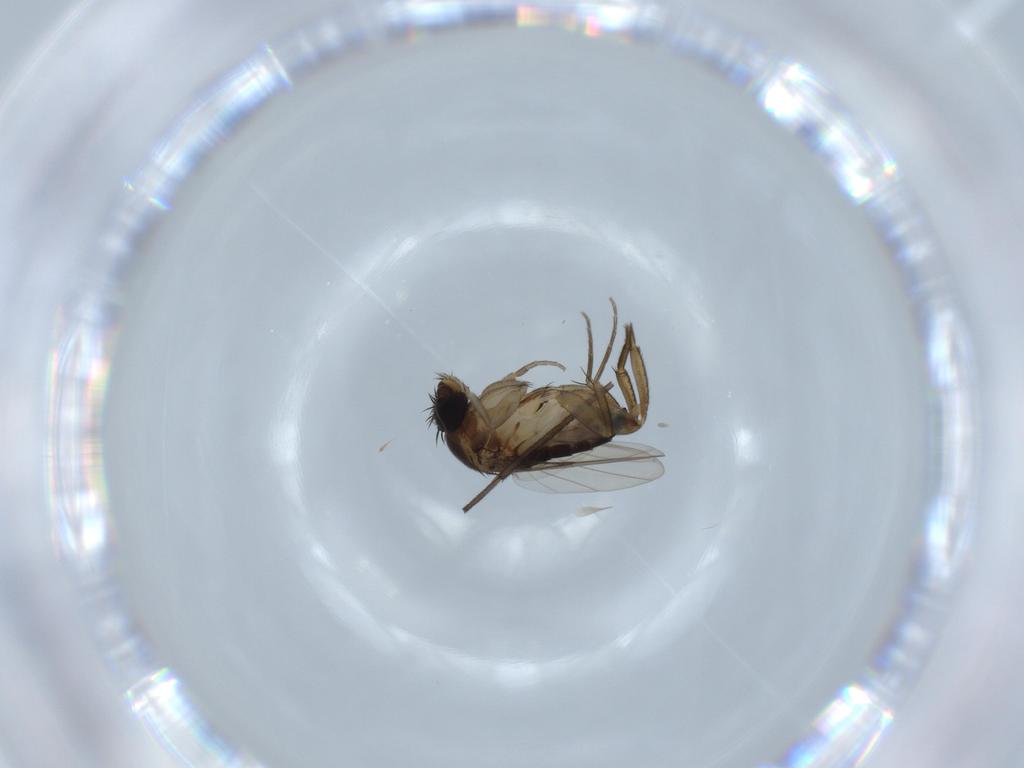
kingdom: Animalia
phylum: Arthropoda
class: Insecta
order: Diptera
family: Phoridae
